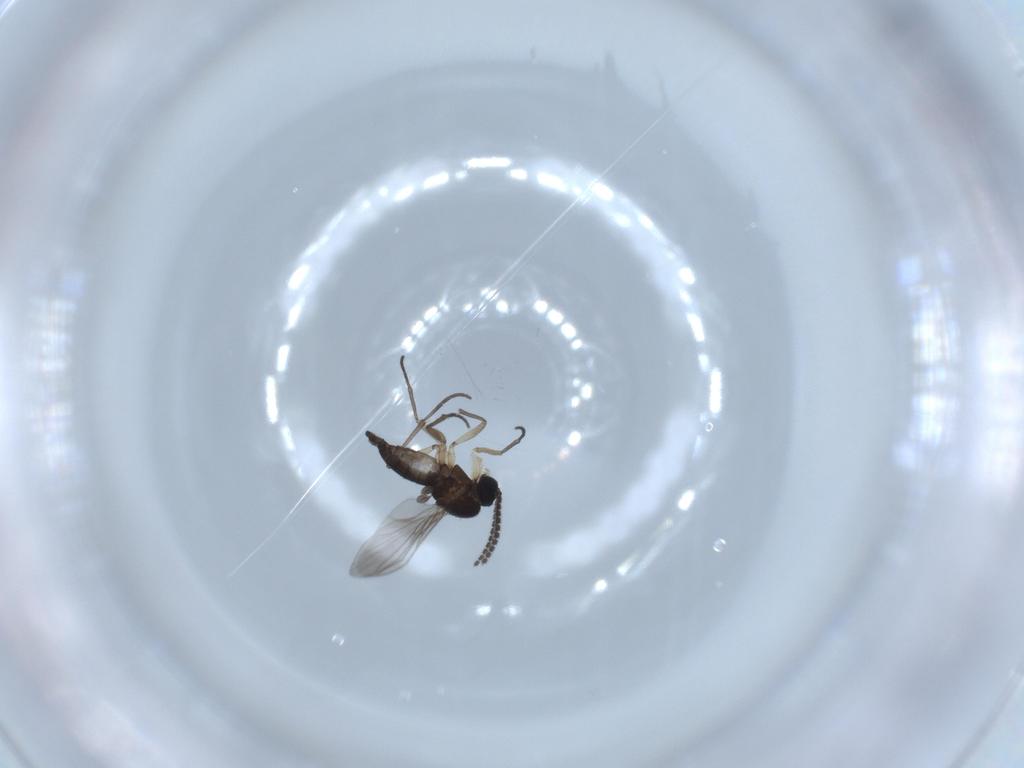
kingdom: Animalia
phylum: Arthropoda
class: Insecta
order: Diptera
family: Sciaridae
